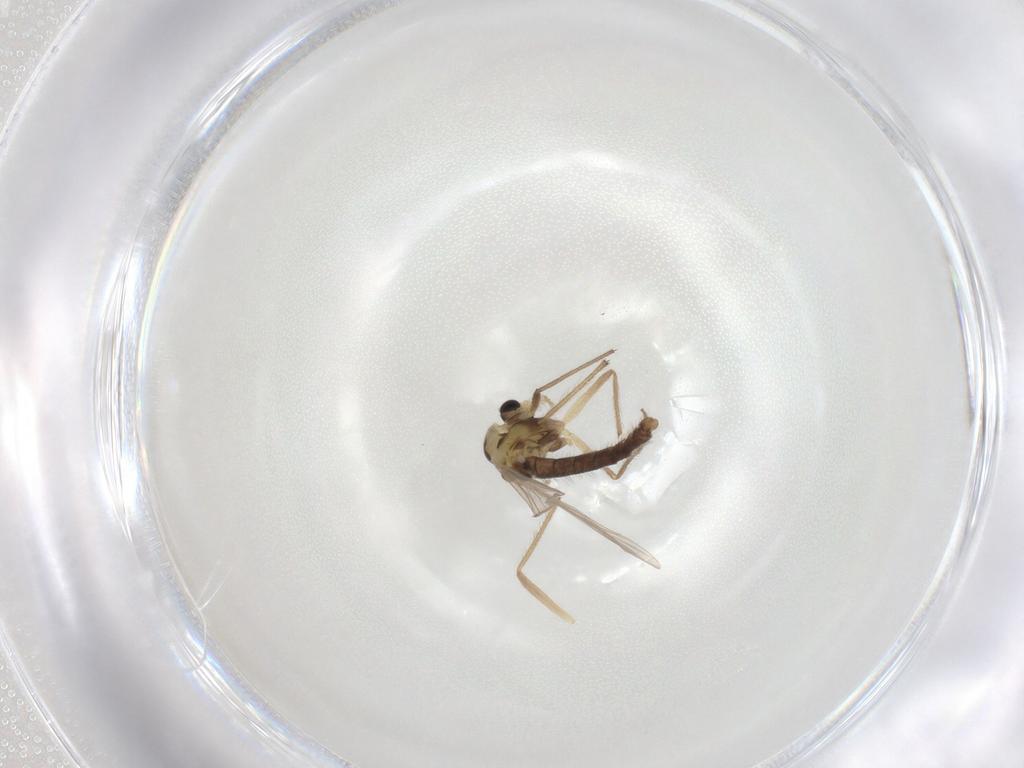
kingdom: Animalia
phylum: Arthropoda
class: Insecta
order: Diptera
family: Chironomidae
